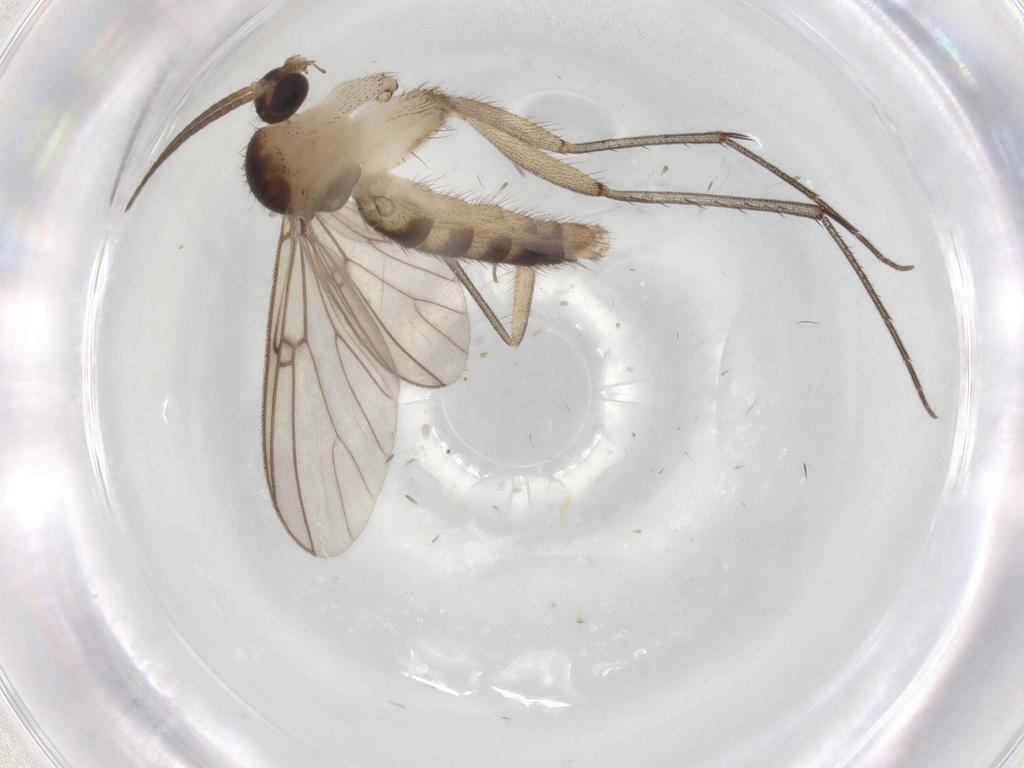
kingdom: Animalia
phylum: Arthropoda
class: Insecta
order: Diptera
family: Psychodidae
